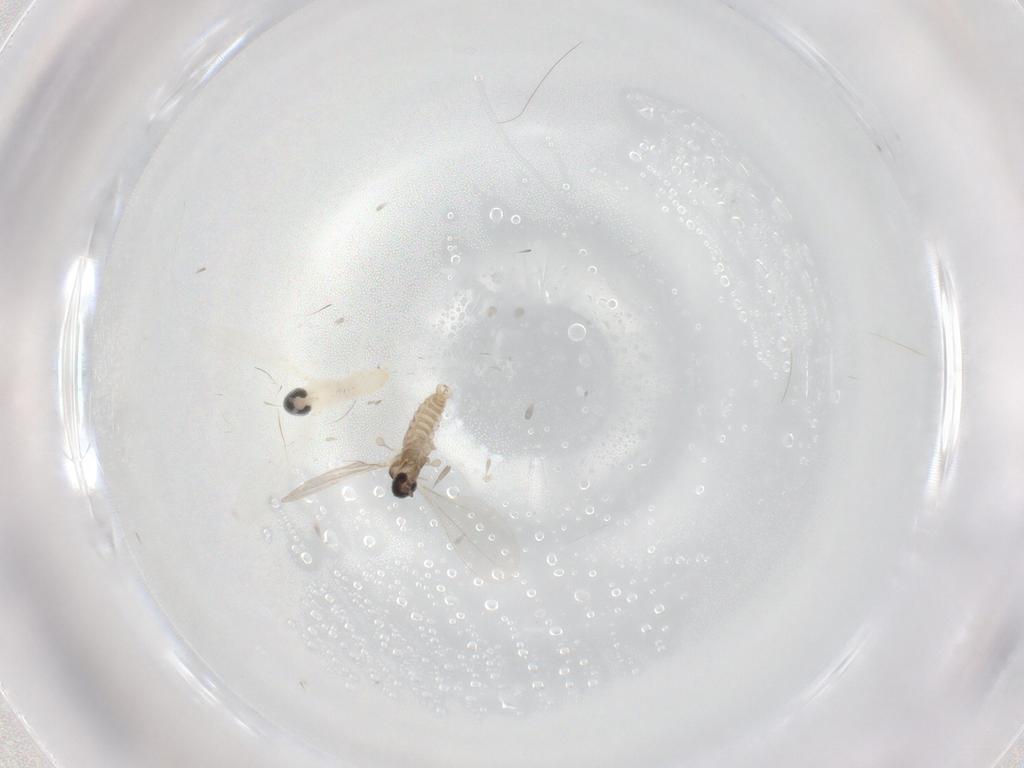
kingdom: Animalia
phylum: Arthropoda
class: Insecta
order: Diptera
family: Cecidomyiidae
